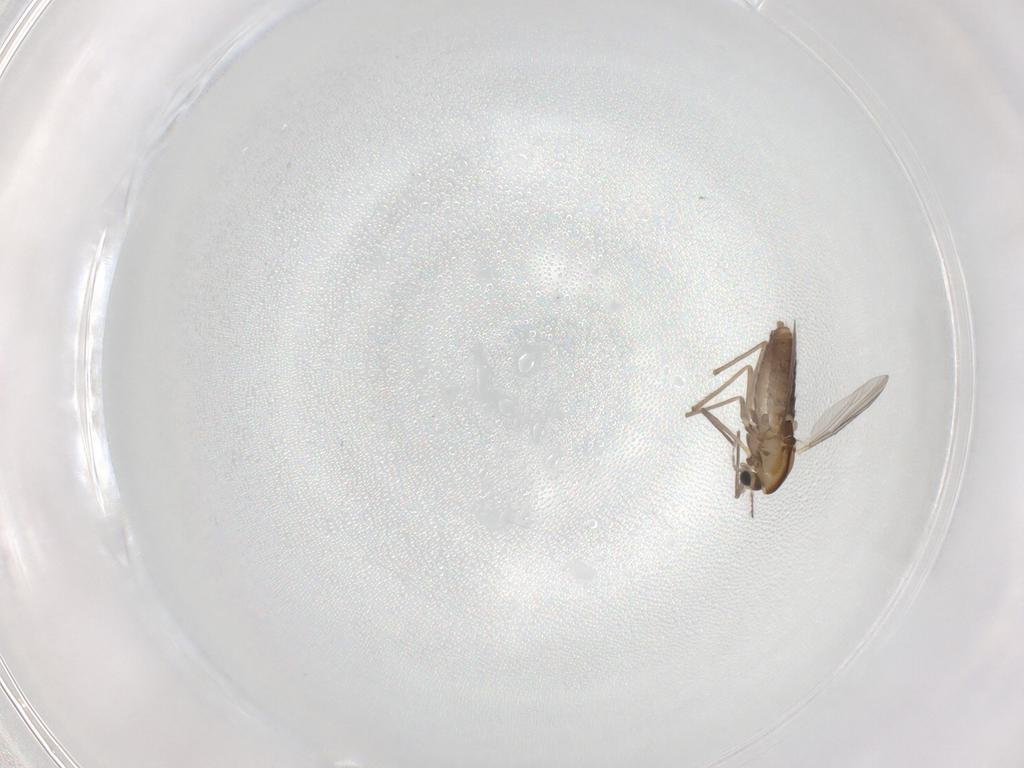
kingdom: Animalia
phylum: Arthropoda
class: Insecta
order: Diptera
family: Chironomidae
